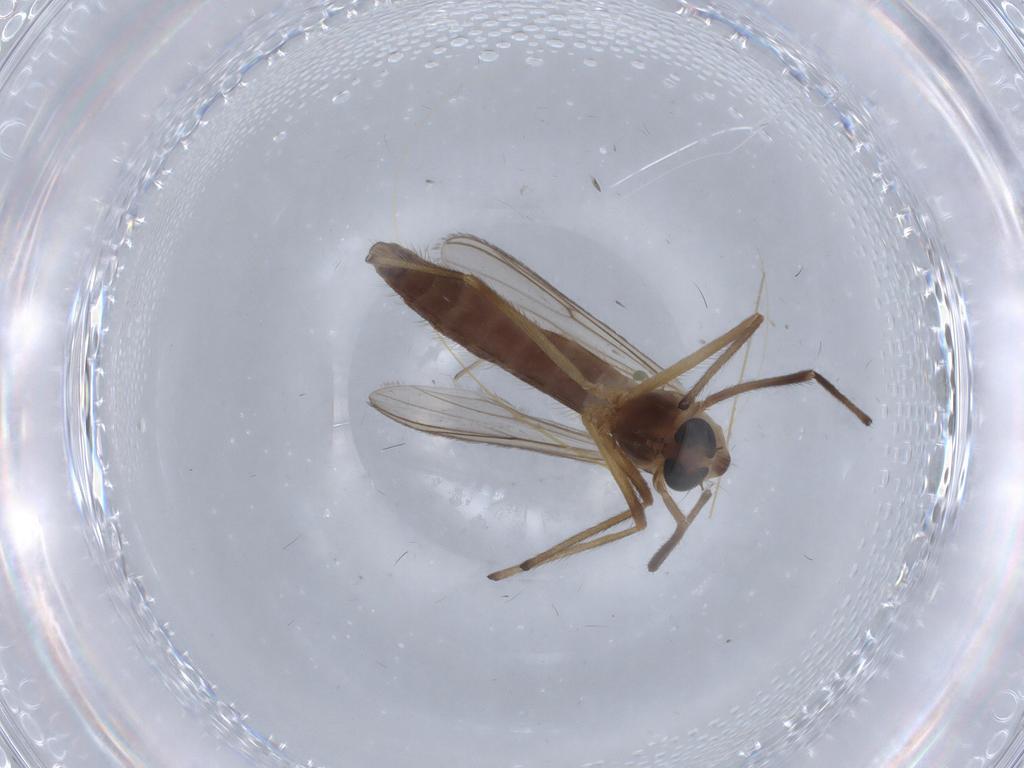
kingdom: Animalia
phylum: Arthropoda
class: Insecta
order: Diptera
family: Chironomidae
